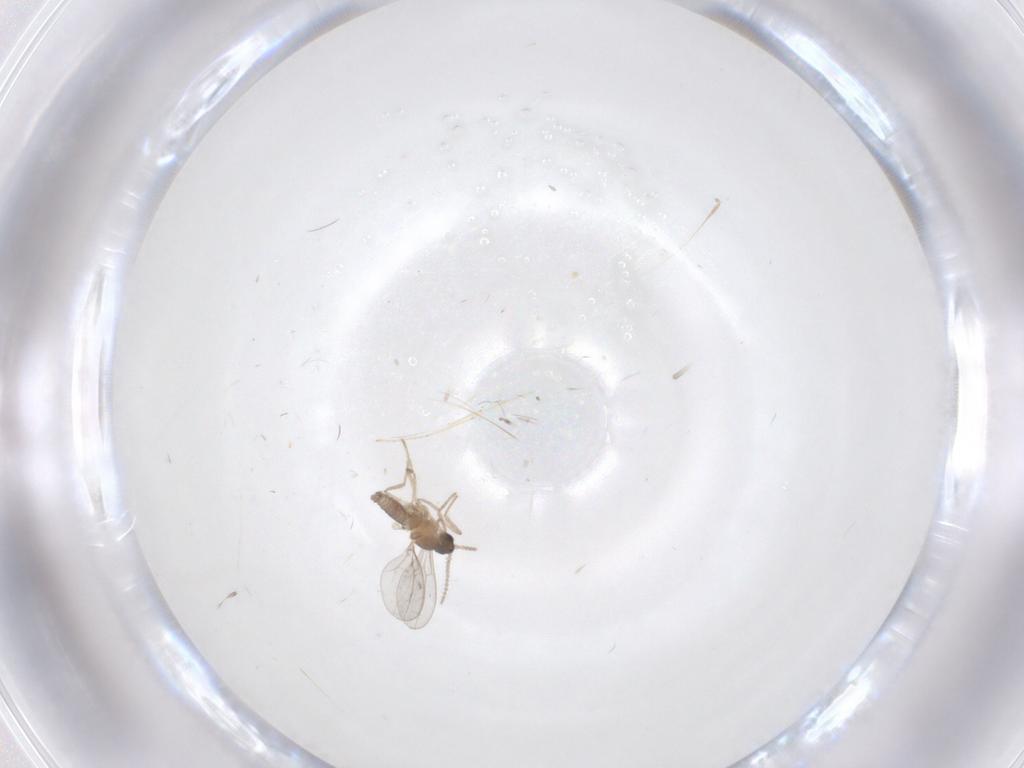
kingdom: Animalia
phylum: Arthropoda
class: Insecta
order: Diptera
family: Cecidomyiidae
